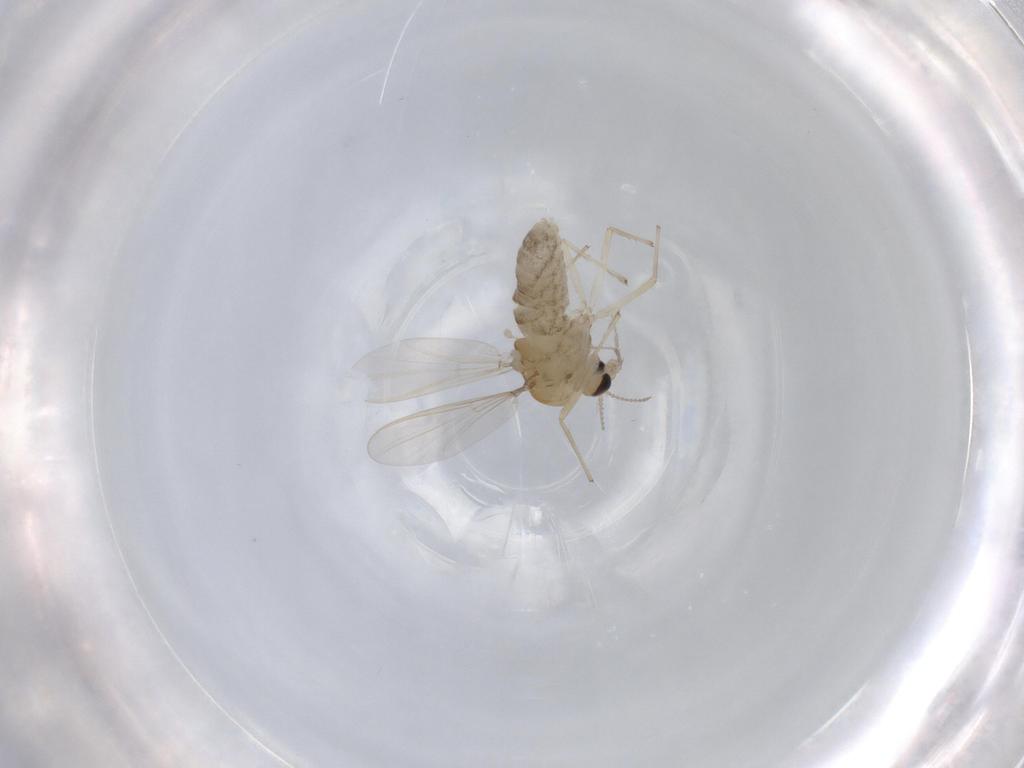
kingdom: Animalia
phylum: Arthropoda
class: Insecta
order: Diptera
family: Chironomidae
